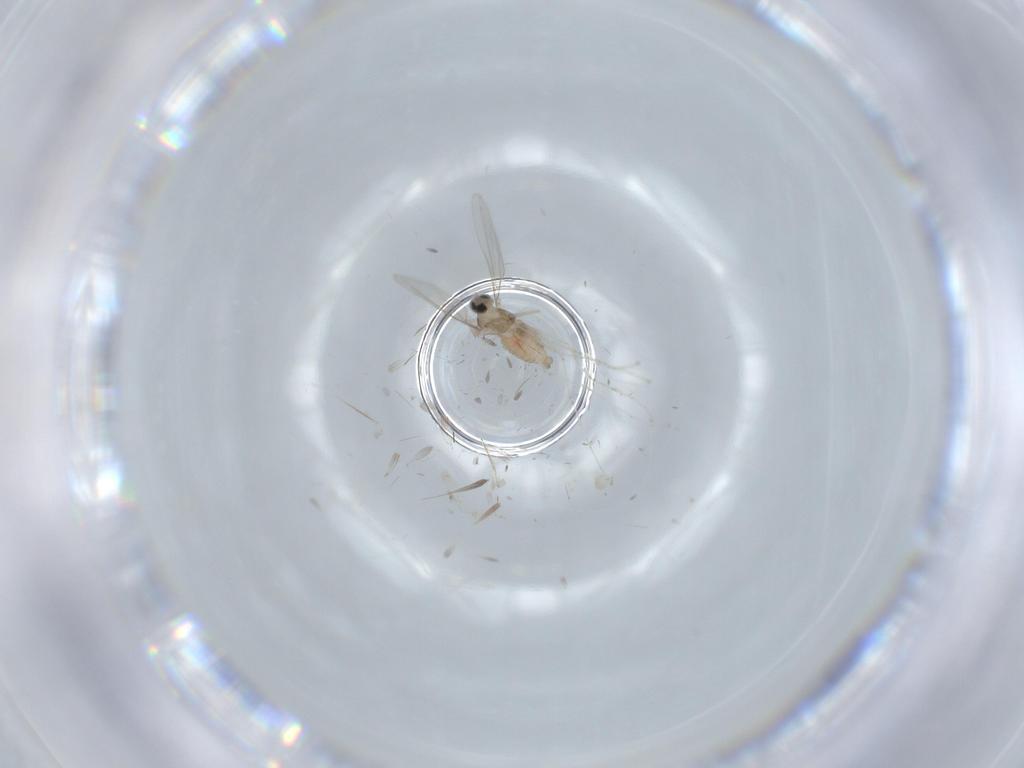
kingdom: Animalia
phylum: Arthropoda
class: Insecta
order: Diptera
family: Cecidomyiidae
